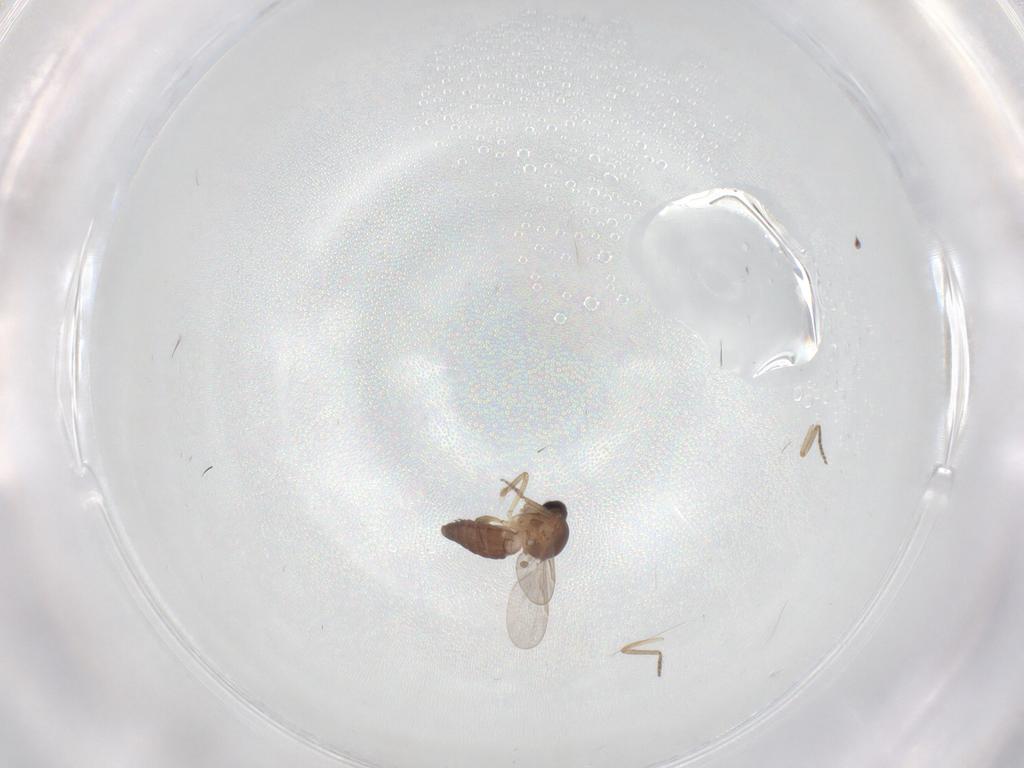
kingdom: Animalia
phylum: Arthropoda
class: Insecta
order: Diptera
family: Ceratopogonidae
